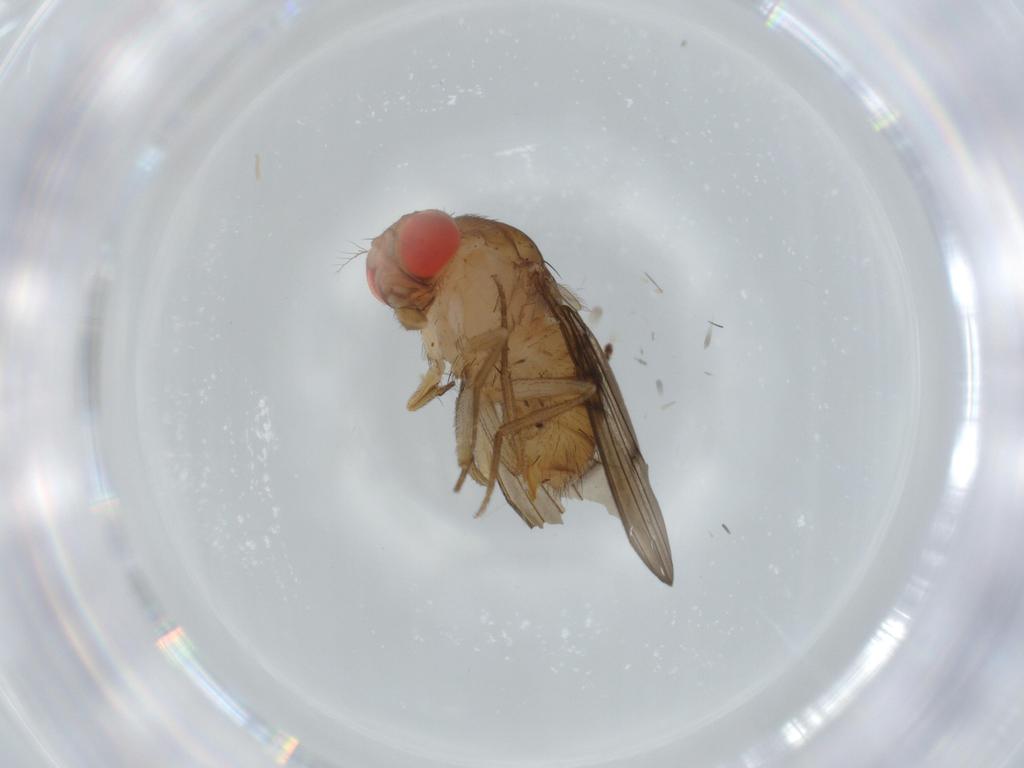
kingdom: Animalia
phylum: Arthropoda
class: Insecta
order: Diptera
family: Drosophilidae
